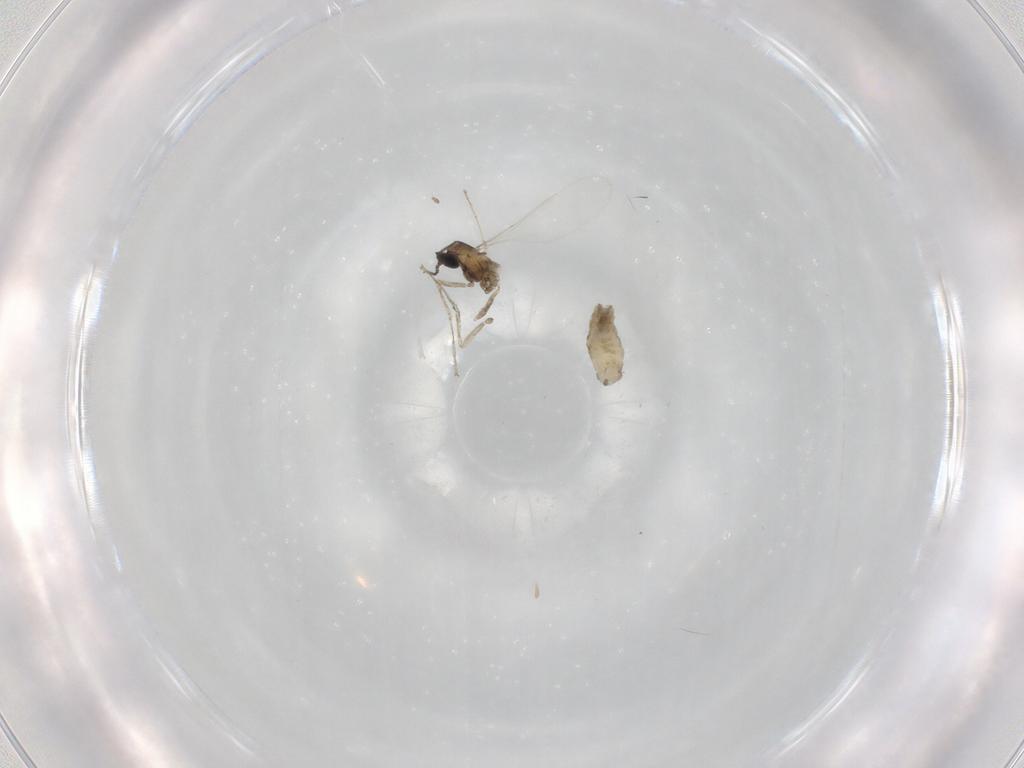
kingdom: Animalia
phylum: Arthropoda
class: Insecta
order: Diptera
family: Cecidomyiidae
